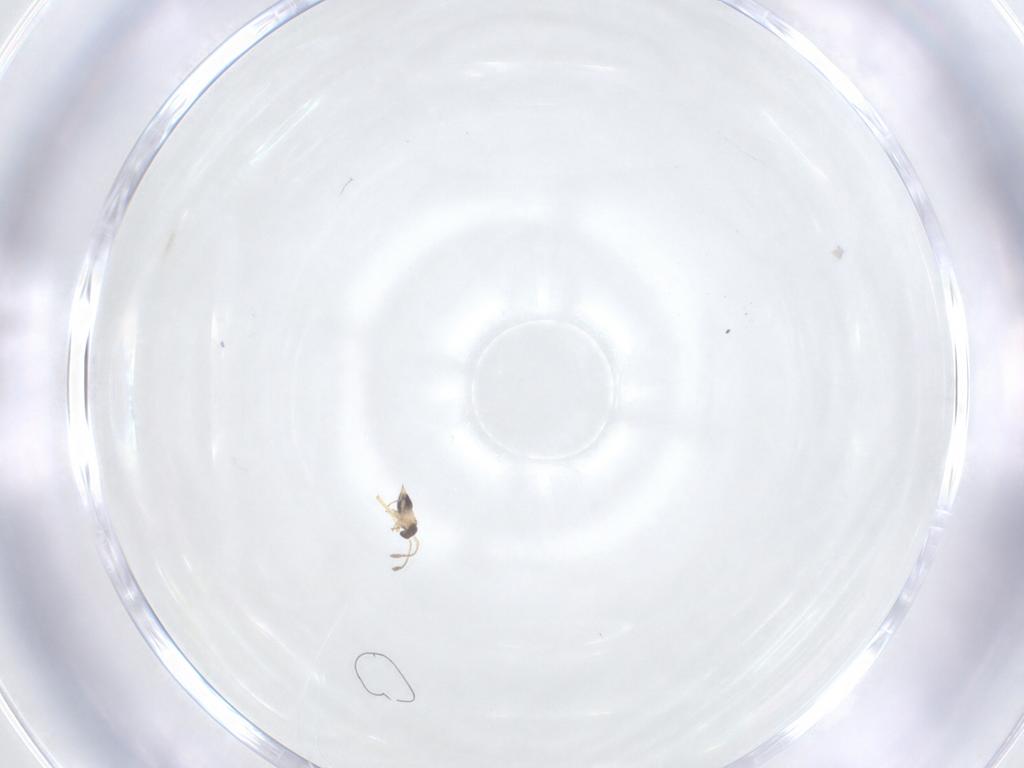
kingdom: Animalia
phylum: Arthropoda
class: Insecta
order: Hymenoptera
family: Mymaridae
